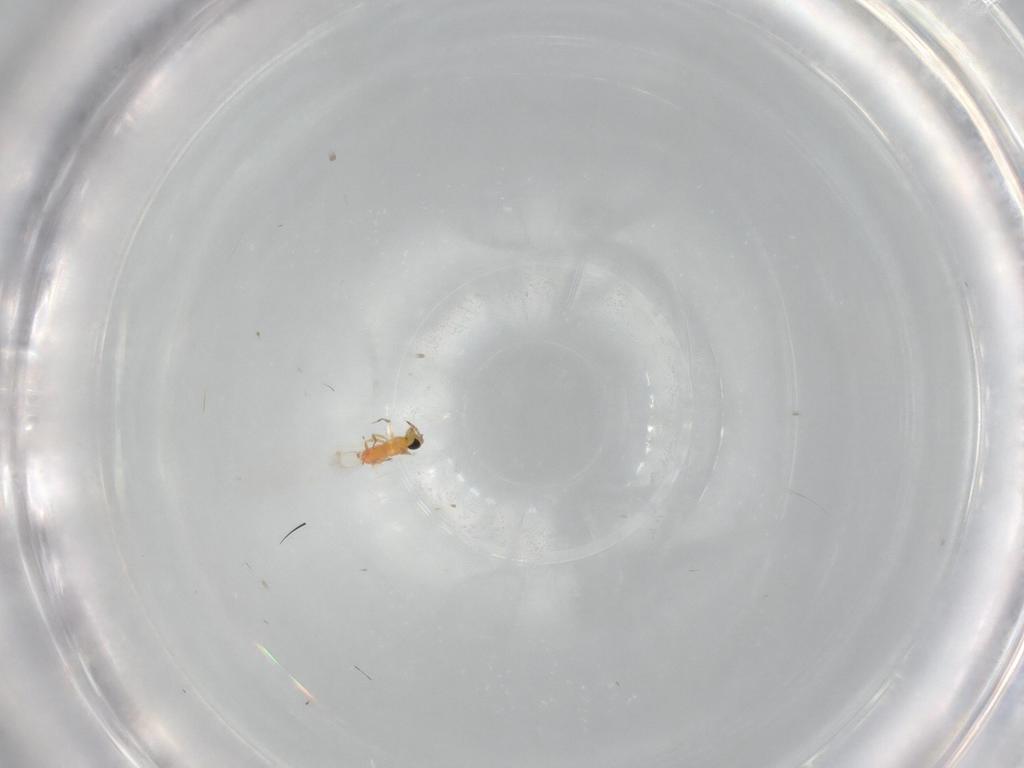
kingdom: Animalia
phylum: Arthropoda
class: Insecta
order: Hymenoptera
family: Trichogrammatidae
